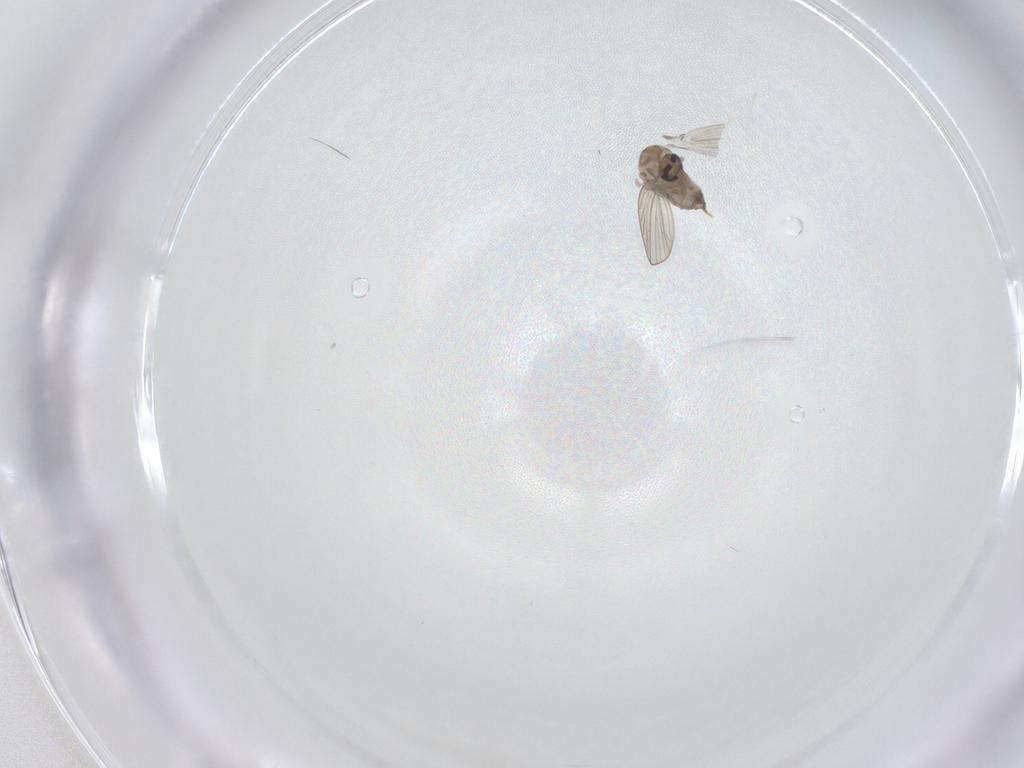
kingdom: Animalia
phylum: Arthropoda
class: Insecta
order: Diptera
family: Psychodidae
